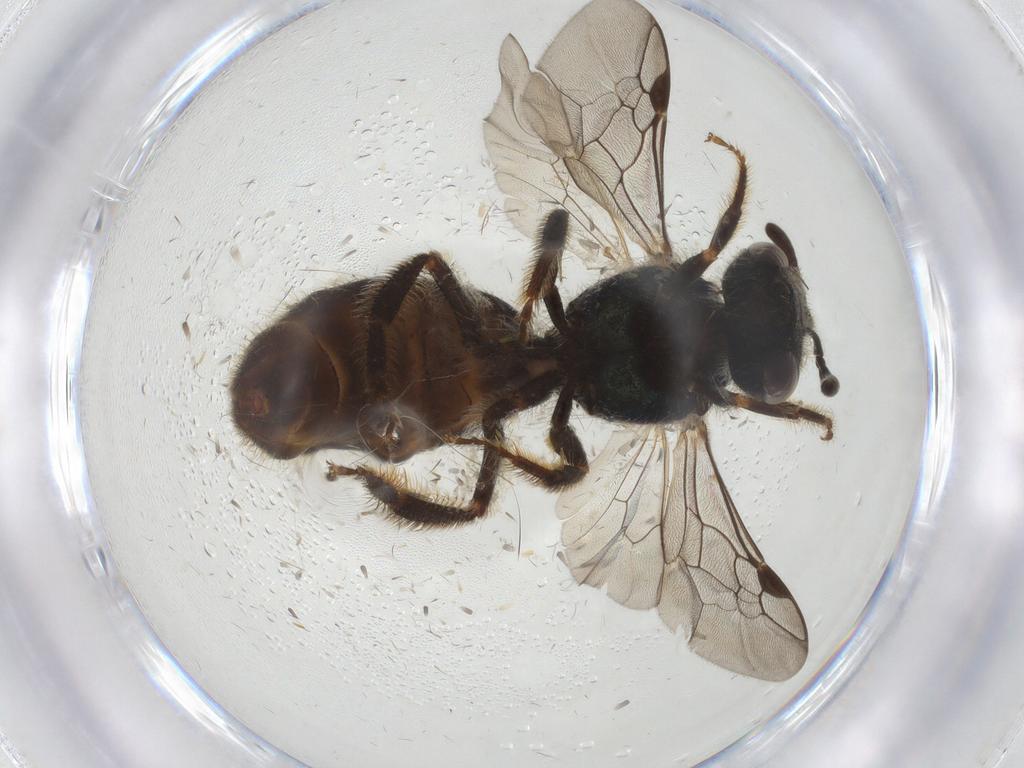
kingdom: Animalia
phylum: Arthropoda
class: Insecta
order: Hymenoptera
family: Halictidae
